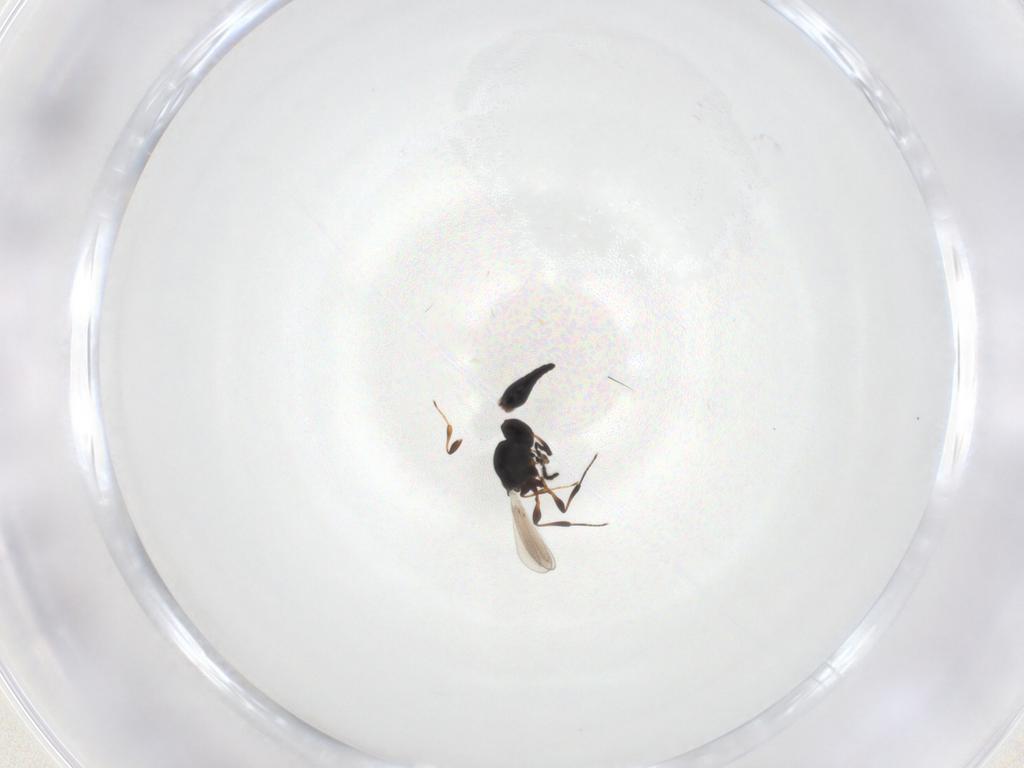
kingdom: Animalia
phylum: Arthropoda
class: Insecta
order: Hymenoptera
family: Platygastridae
